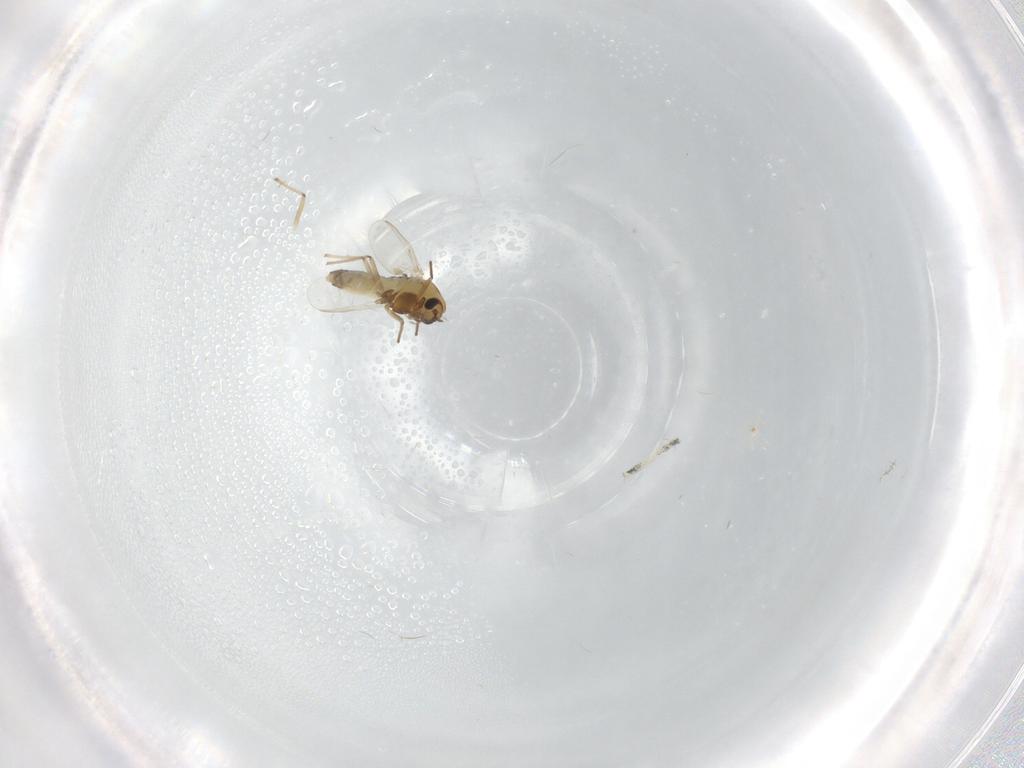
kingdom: Animalia
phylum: Arthropoda
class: Insecta
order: Diptera
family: Chironomidae
